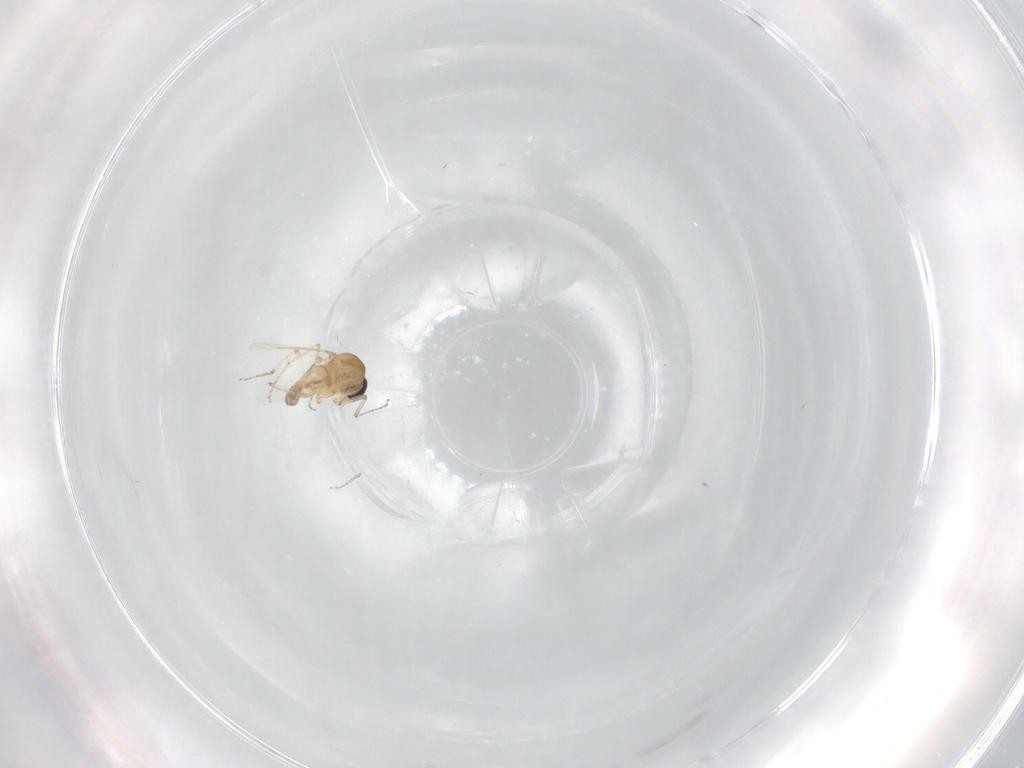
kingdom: Animalia
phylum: Arthropoda
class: Insecta
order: Diptera
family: Ceratopogonidae
